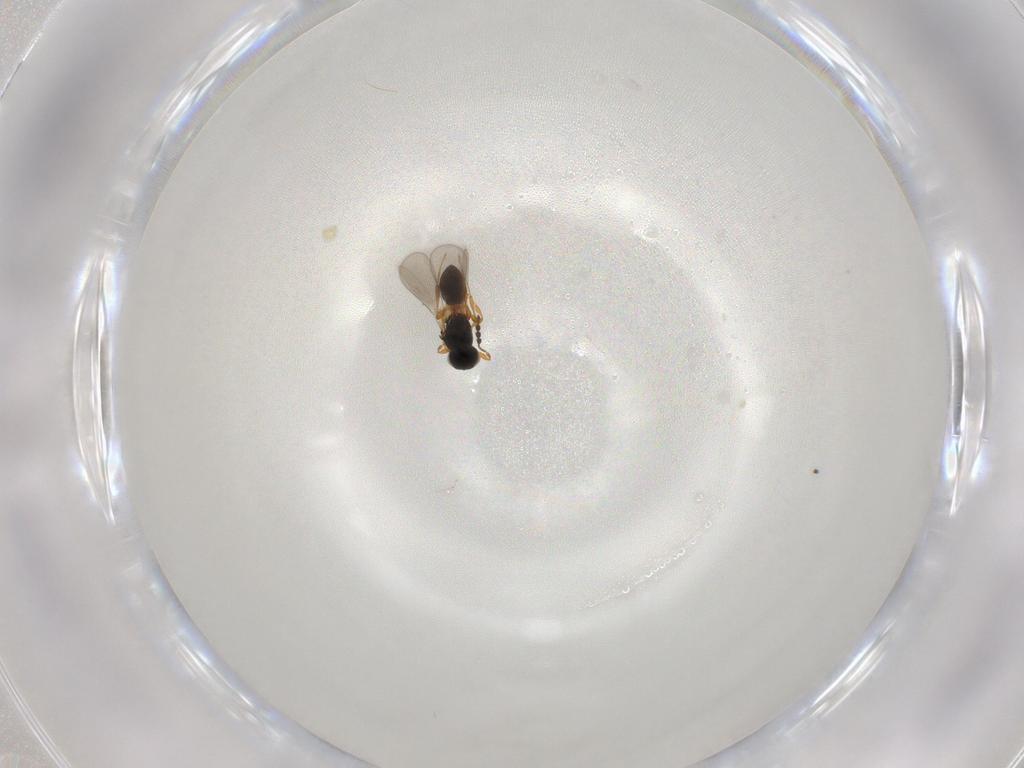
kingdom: Animalia
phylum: Arthropoda
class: Insecta
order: Hymenoptera
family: Platygastridae
